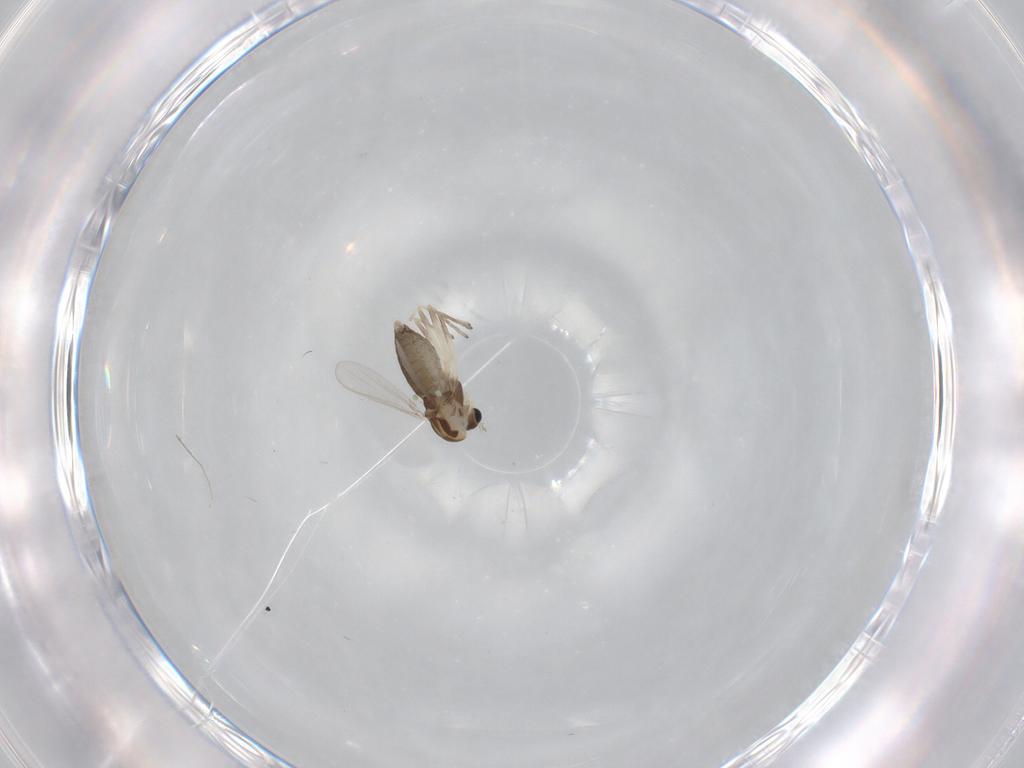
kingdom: Animalia
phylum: Arthropoda
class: Insecta
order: Diptera
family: Chironomidae
